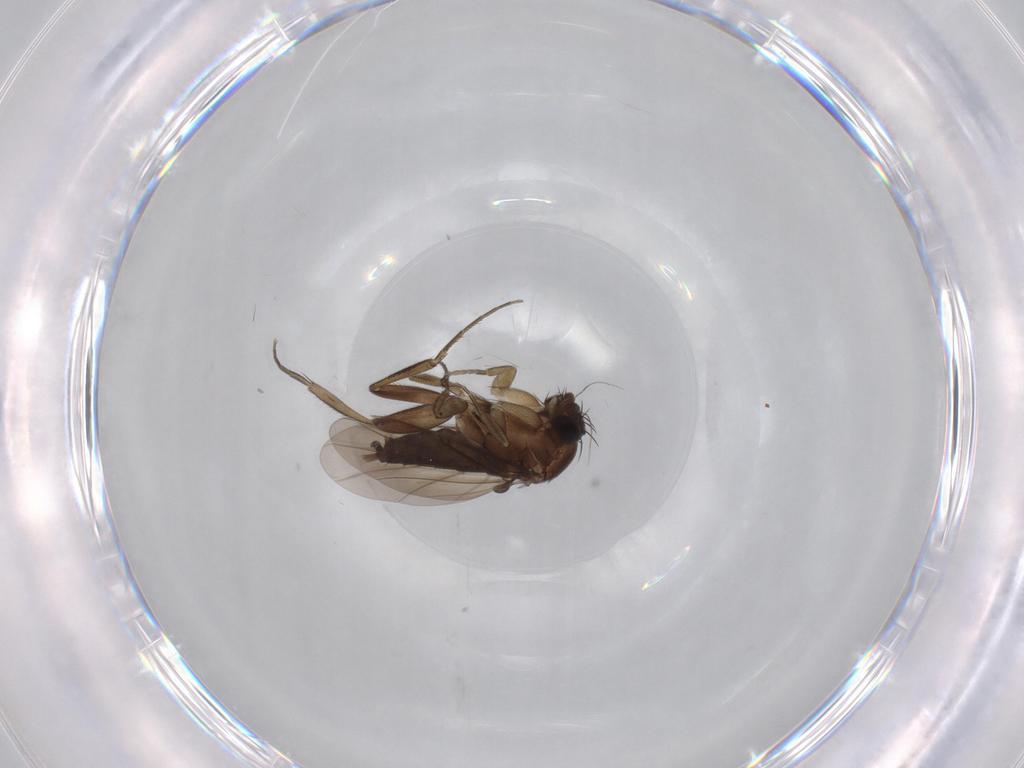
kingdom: Animalia
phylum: Arthropoda
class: Insecta
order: Diptera
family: Phoridae
